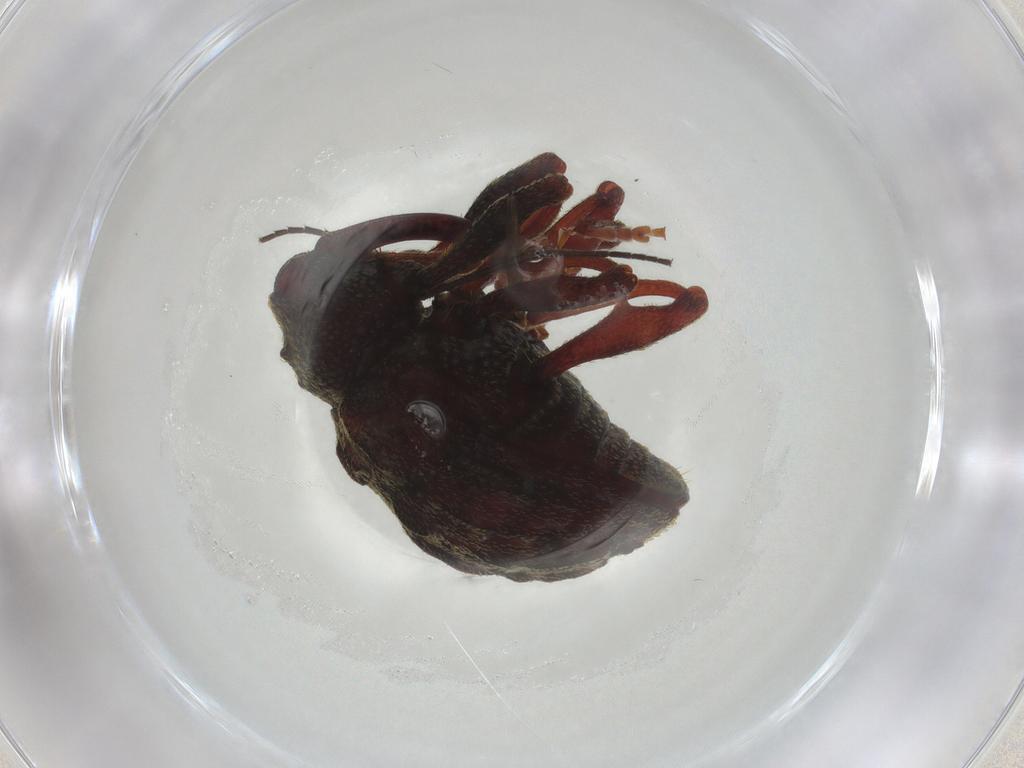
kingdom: Animalia
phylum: Arthropoda
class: Insecta
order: Coleoptera
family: Curculionidae
